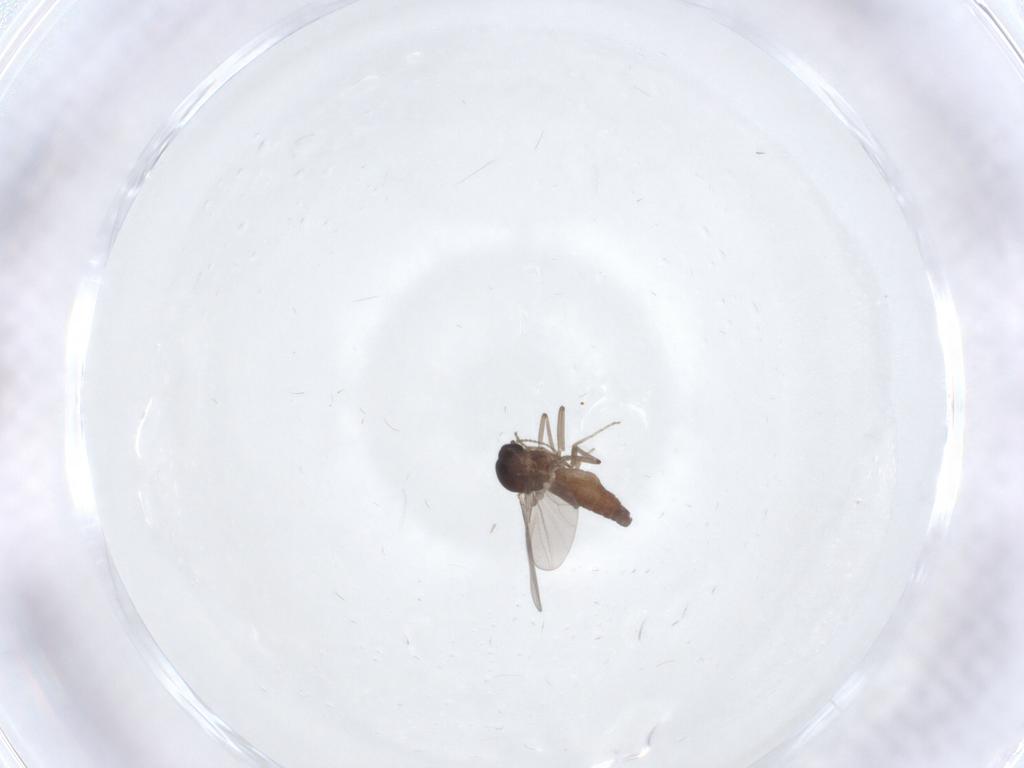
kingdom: Animalia
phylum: Arthropoda
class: Insecta
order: Diptera
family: Ceratopogonidae
